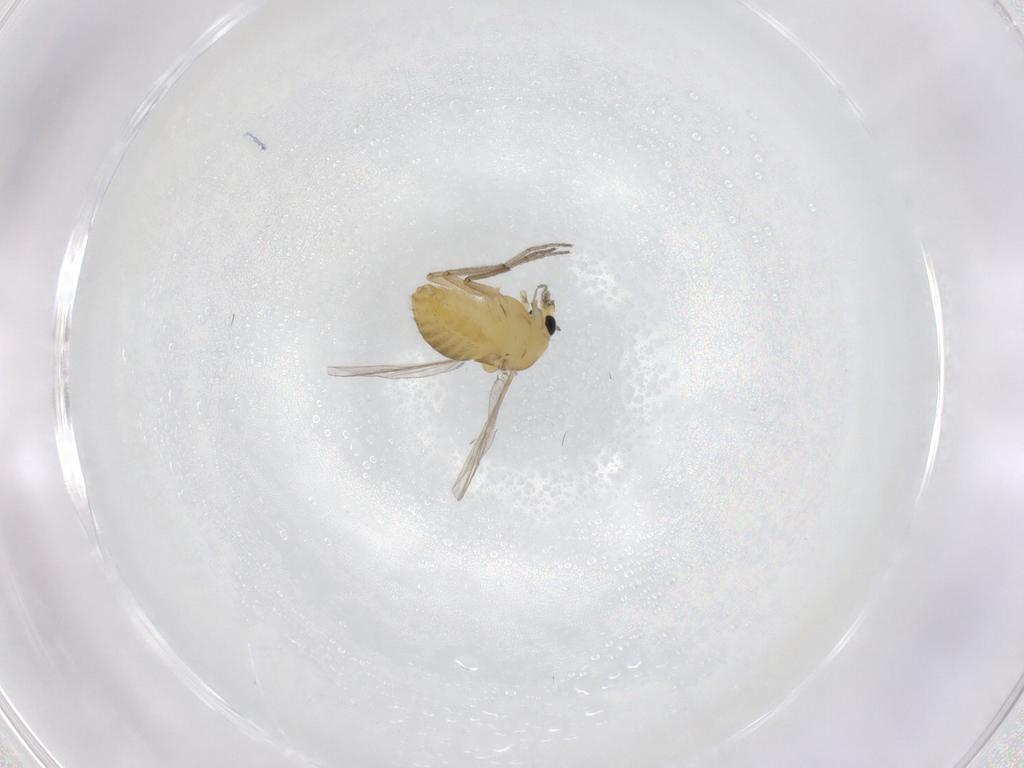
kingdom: Animalia
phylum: Arthropoda
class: Insecta
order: Diptera
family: Chironomidae
